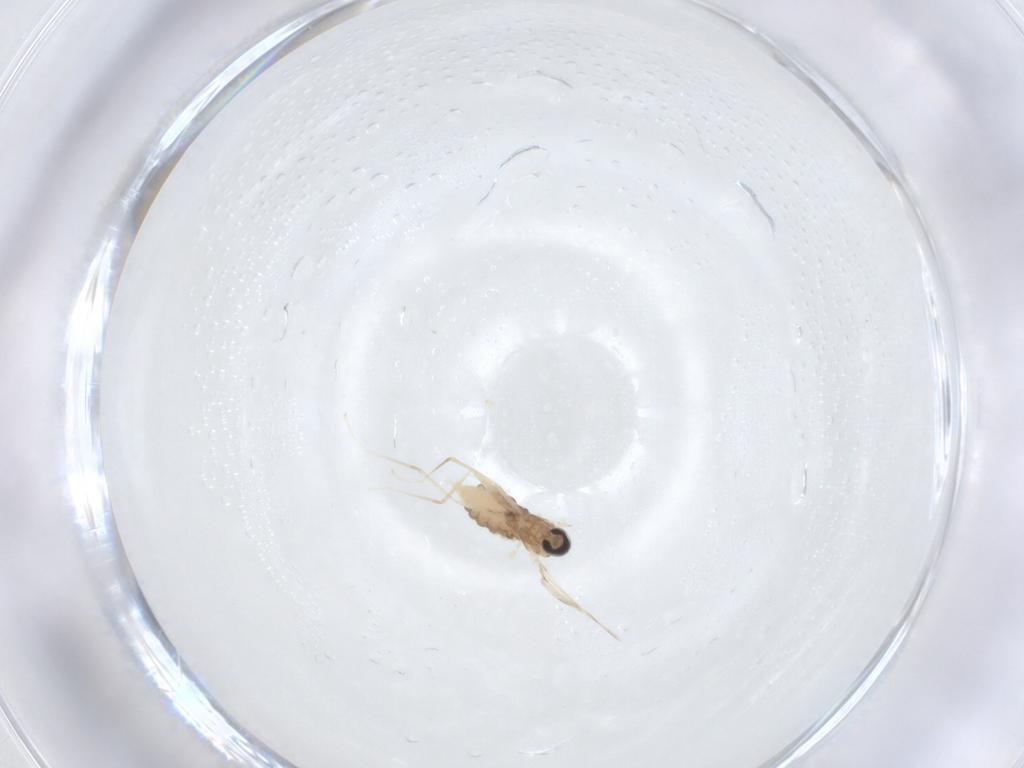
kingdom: Animalia
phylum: Arthropoda
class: Insecta
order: Diptera
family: Cecidomyiidae
